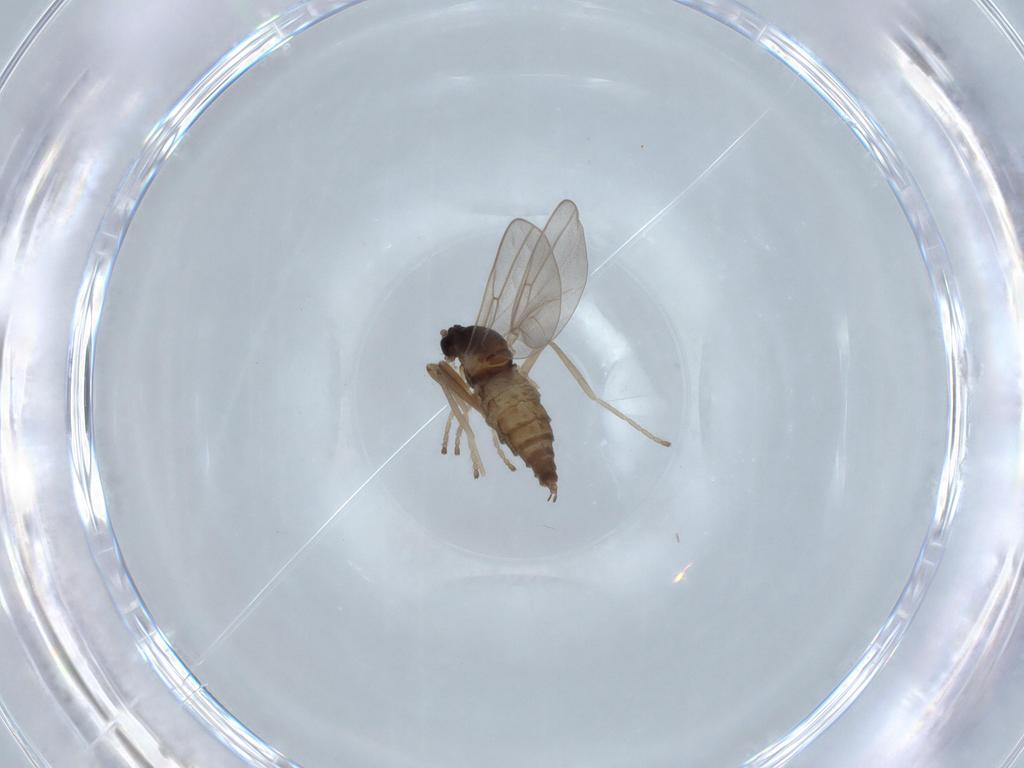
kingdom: Animalia
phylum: Arthropoda
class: Insecta
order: Diptera
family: Cecidomyiidae
